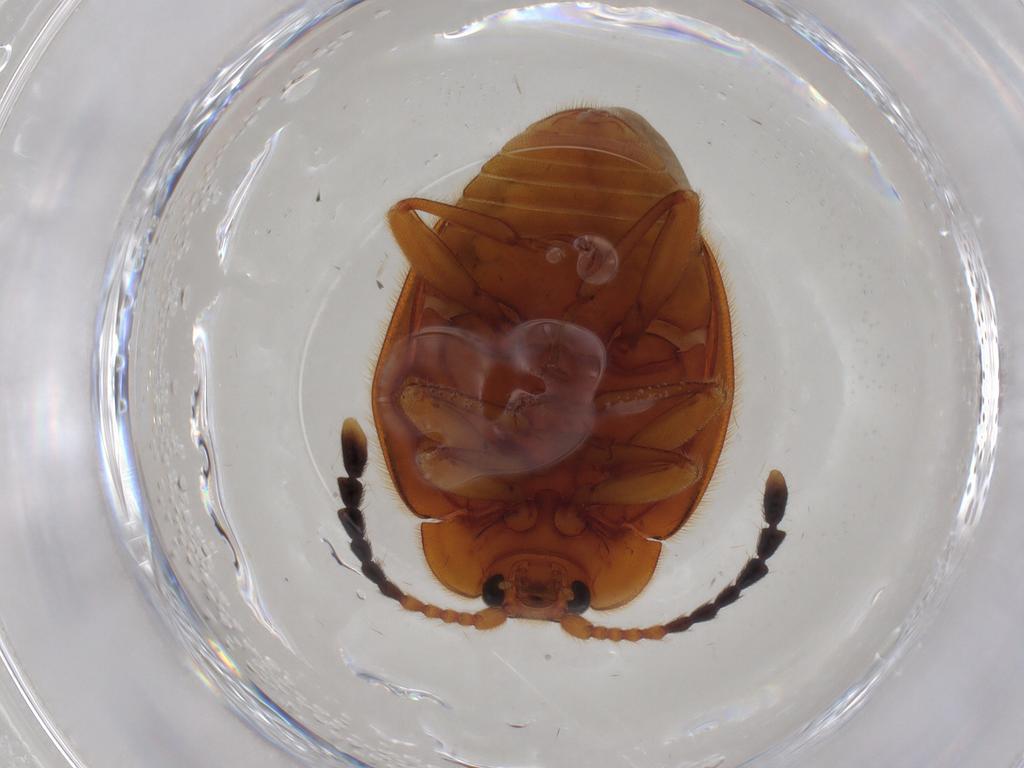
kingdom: Animalia
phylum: Arthropoda
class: Insecta
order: Coleoptera
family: Endomychidae
